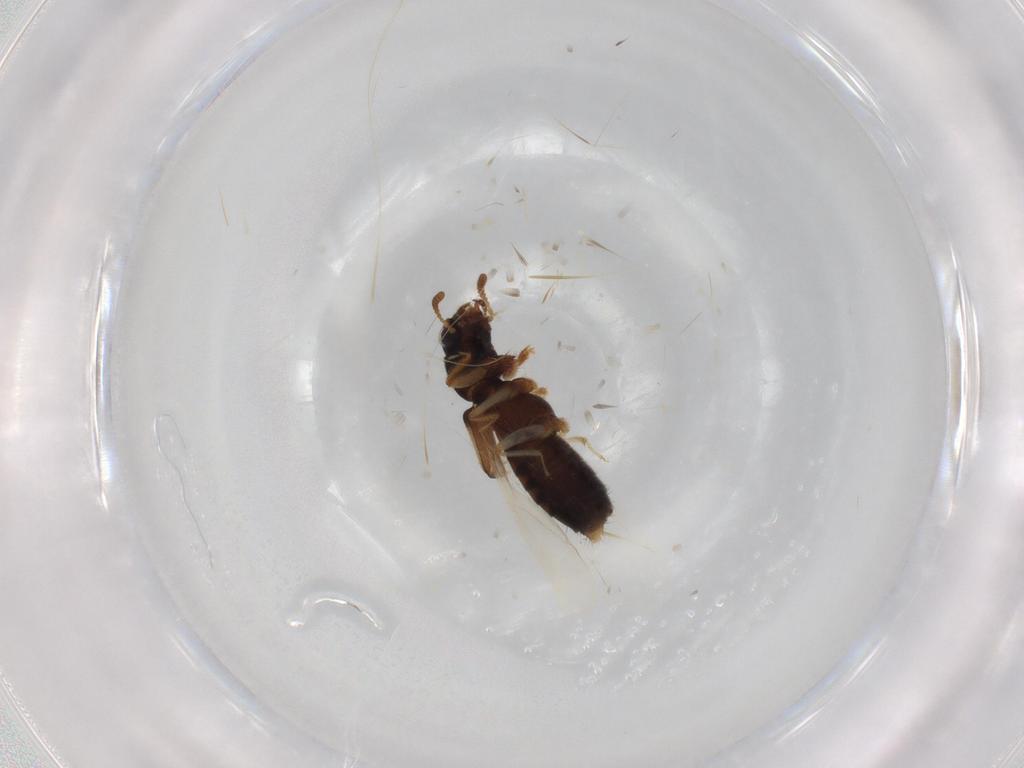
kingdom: Animalia
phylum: Arthropoda
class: Insecta
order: Coleoptera
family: Staphylinidae
